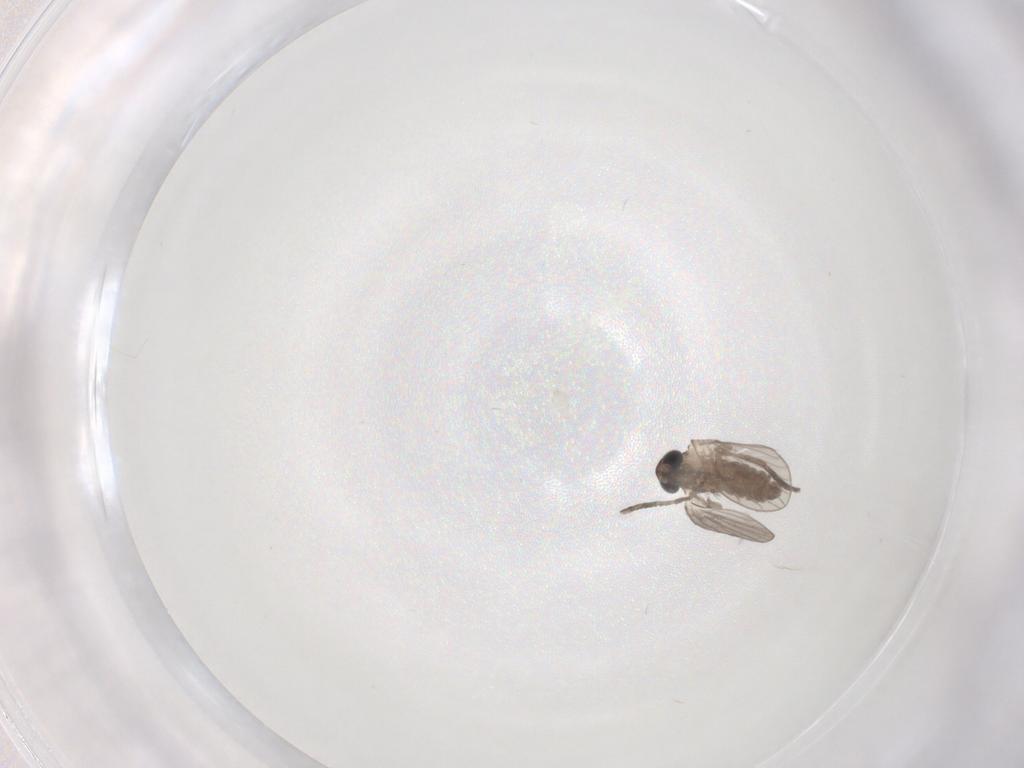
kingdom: Animalia
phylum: Arthropoda
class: Insecta
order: Diptera
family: Psychodidae
